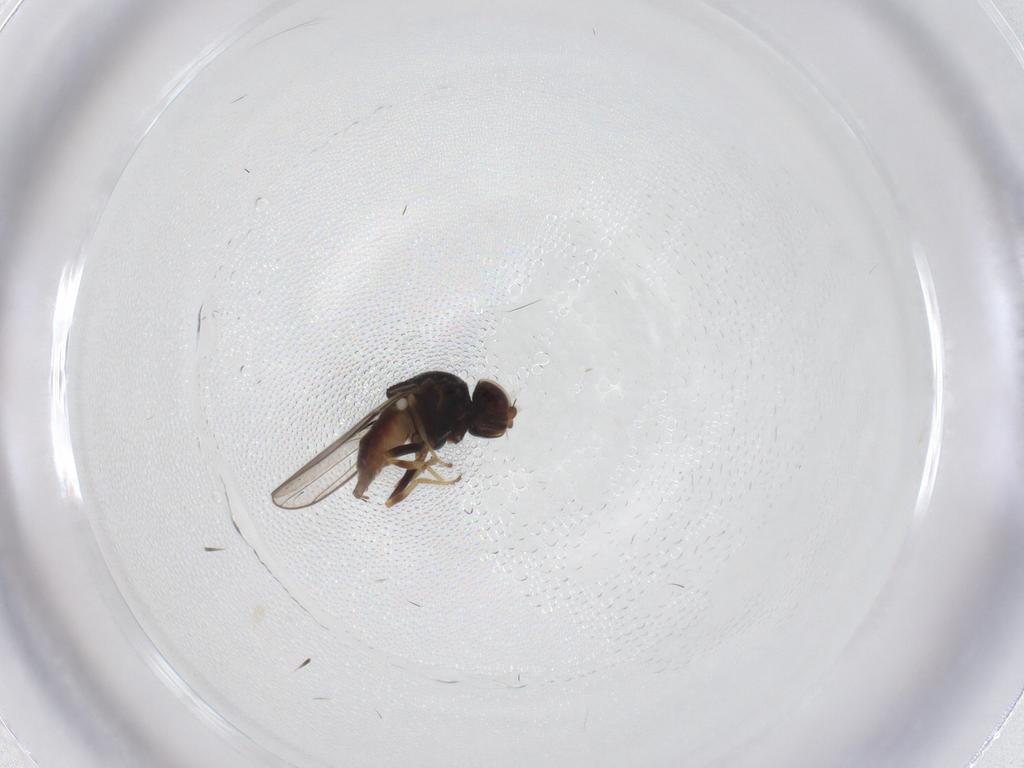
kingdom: Animalia
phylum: Arthropoda
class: Insecta
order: Diptera
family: Chloropidae
